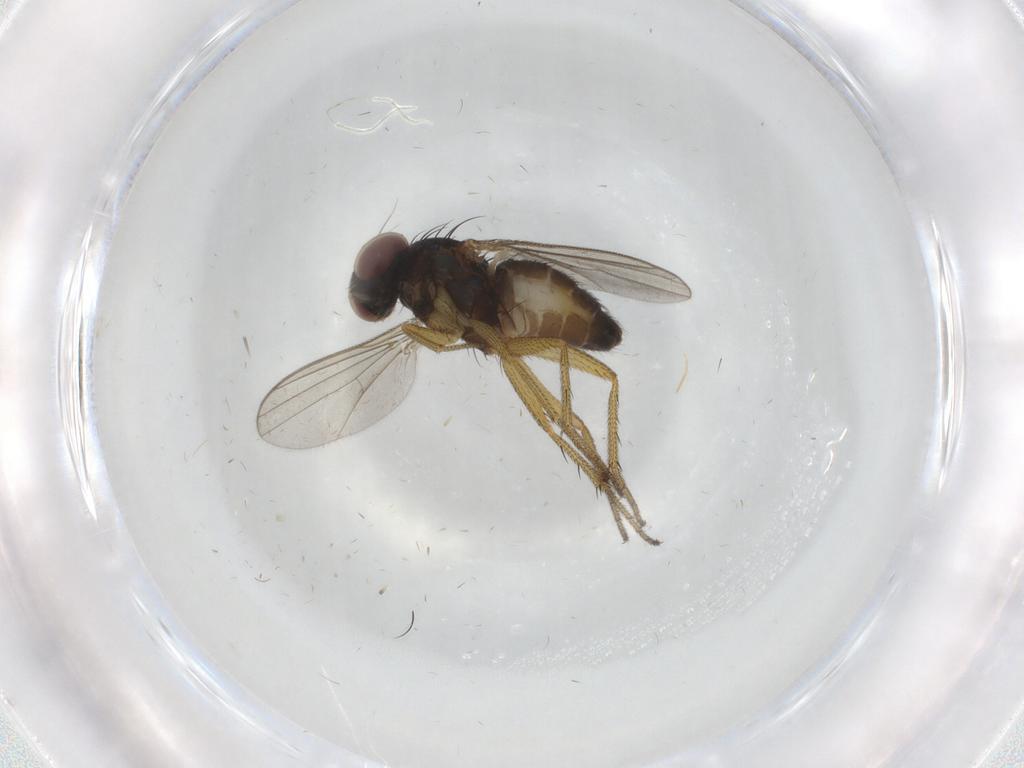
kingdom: Animalia
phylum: Arthropoda
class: Insecta
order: Diptera
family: Dolichopodidae
